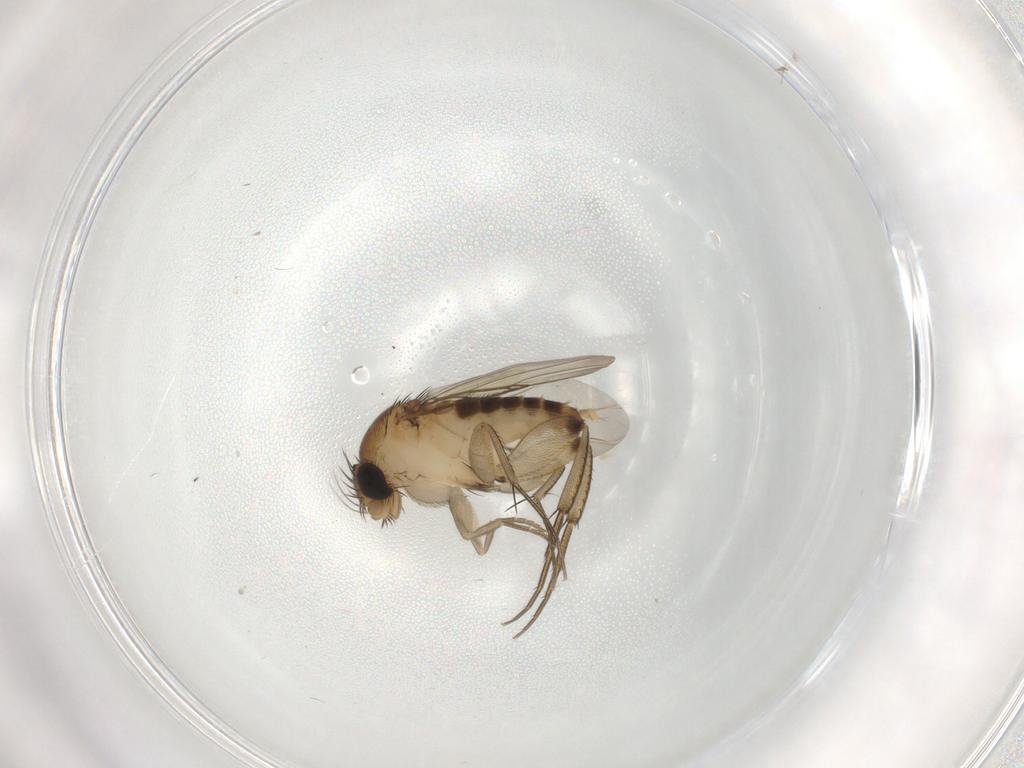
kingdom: Animalia
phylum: Arthropoda
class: Insecta
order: Diptera
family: Phoridae
